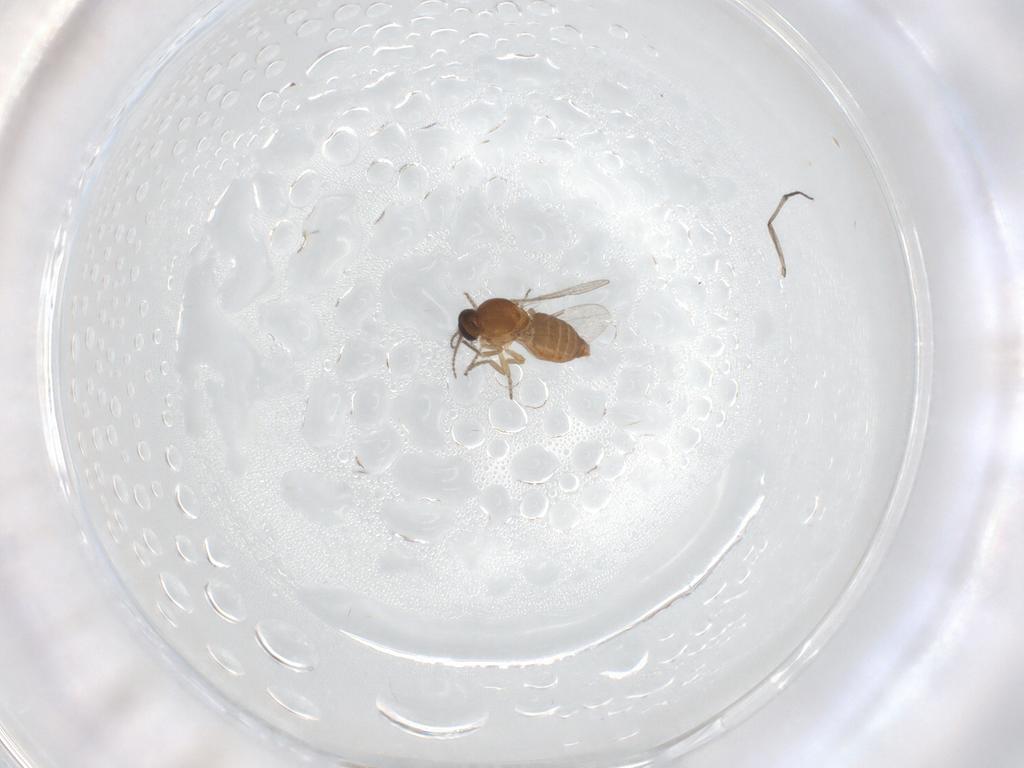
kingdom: Animalia
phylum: Arthropoda
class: Insecta
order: Diptera
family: Ceratopogonidae
